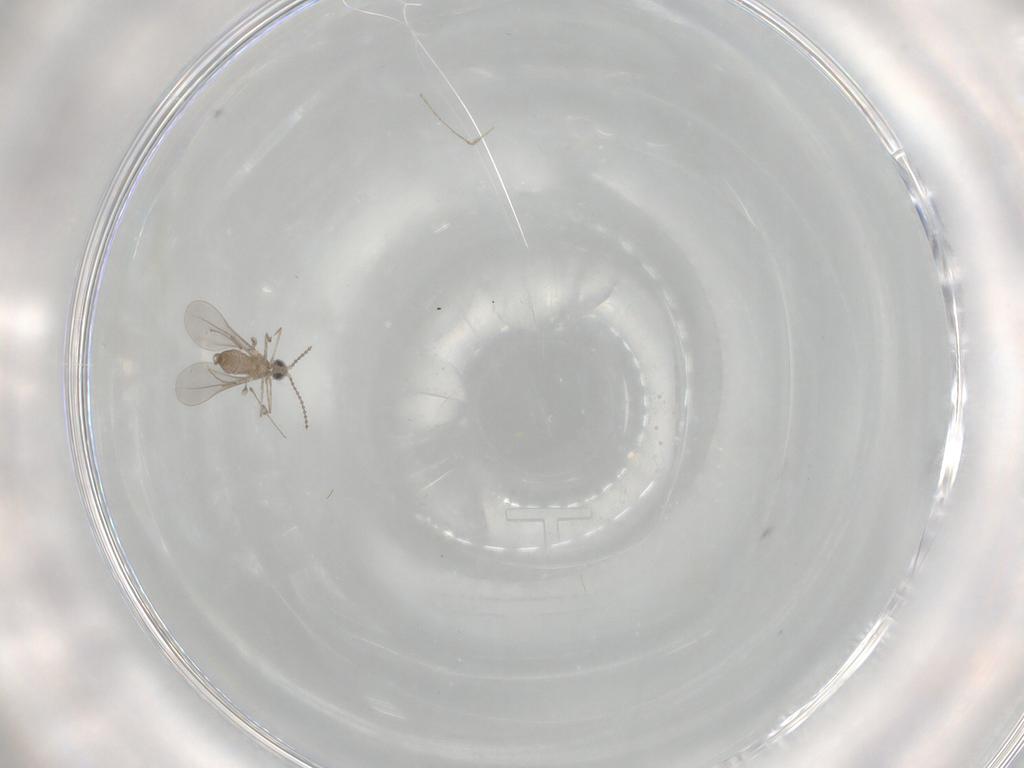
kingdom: Animalia
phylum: Arthropoda
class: Insecta
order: Diptera
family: Cecidomyiidae
